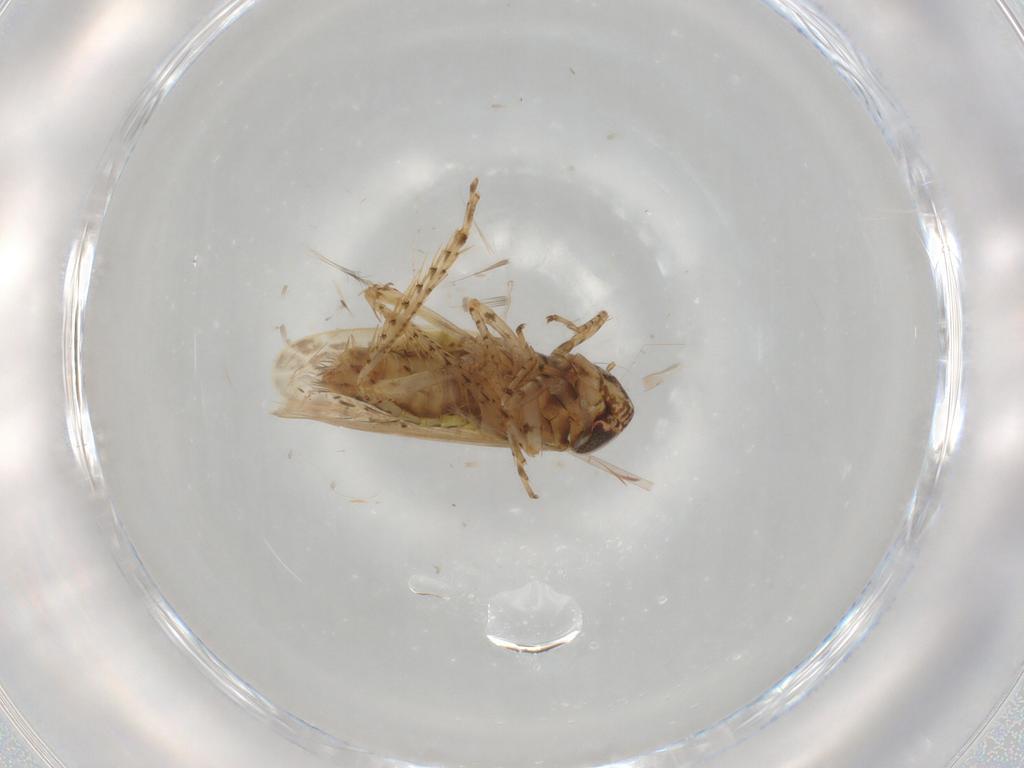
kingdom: Animalia
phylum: Arthropoda
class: Insecta
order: Hemiptera
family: Cicadellidae
